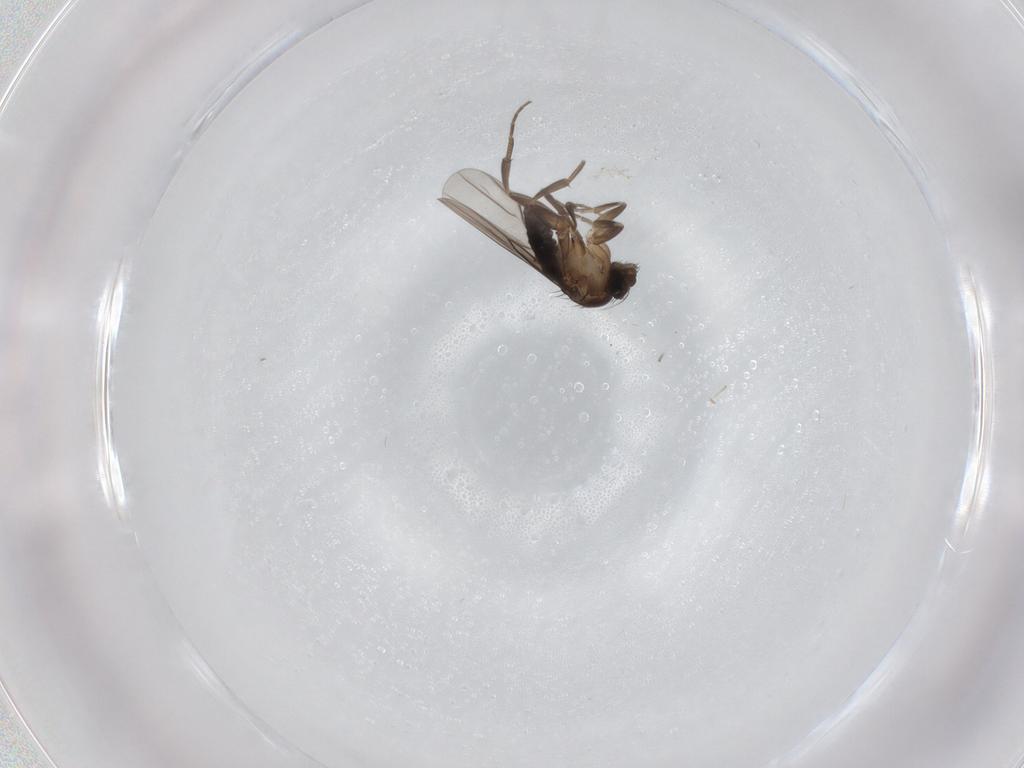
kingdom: Animalia
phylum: Arthropoda
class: Insecta
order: Diptera
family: Phoridae
